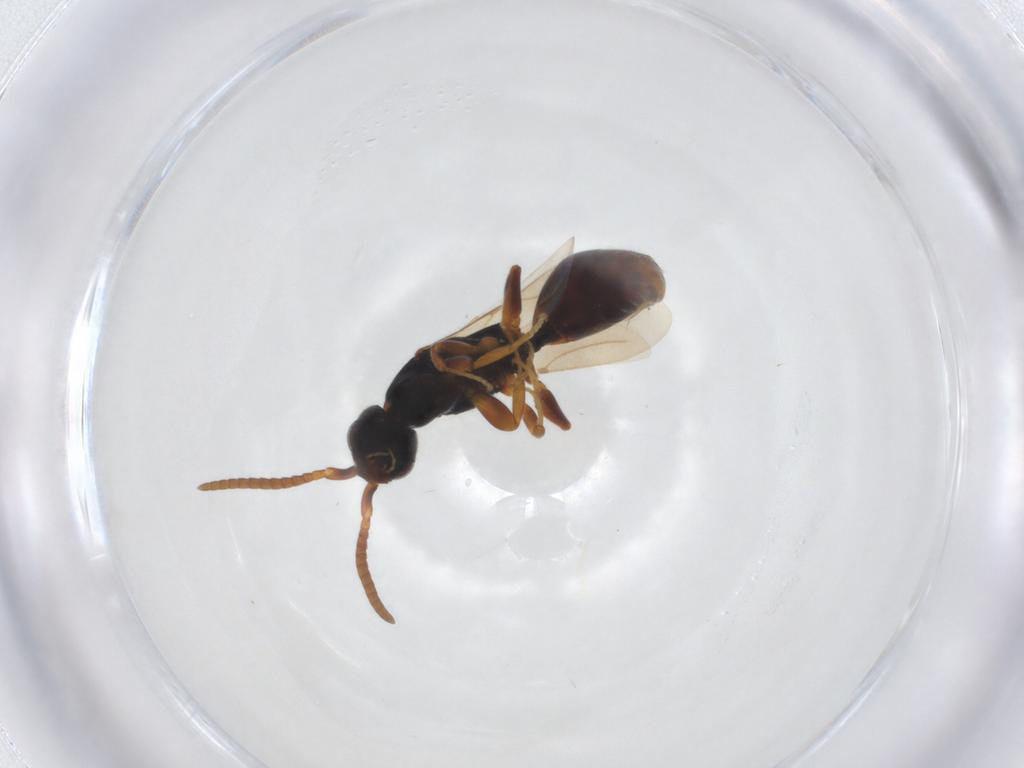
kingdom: Animalia
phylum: Arthropoda
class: Insecta
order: Hymenoptera
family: Bethylidae
